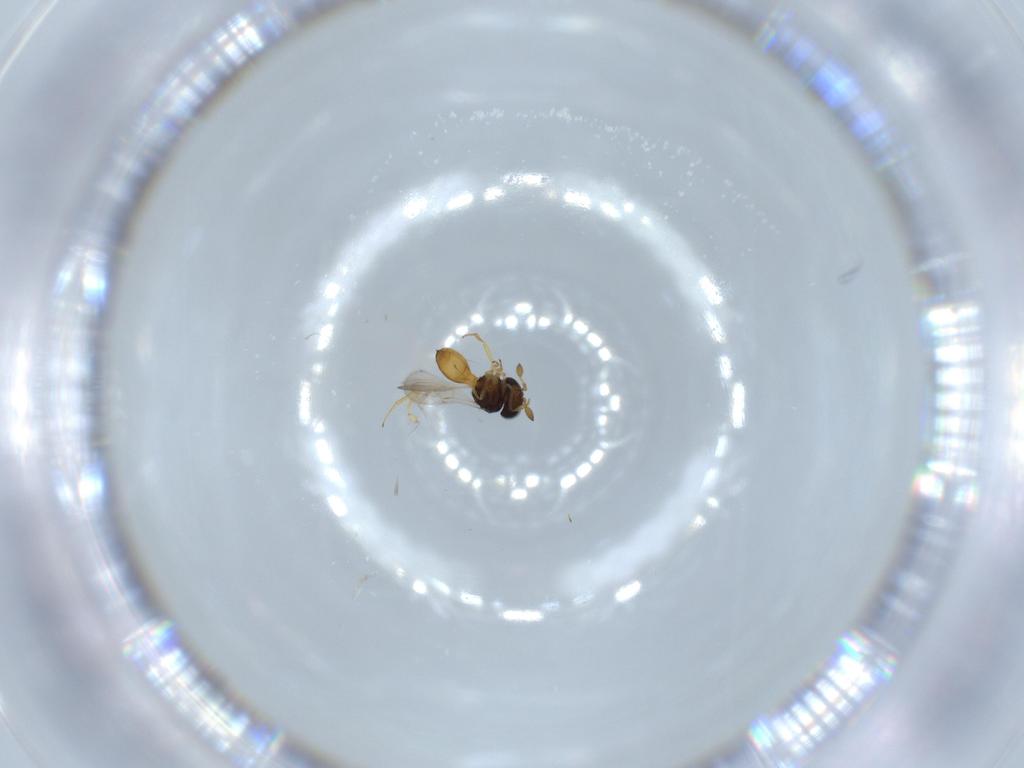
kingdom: Animalia
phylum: Arthropoda
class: Insecta
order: Hymenoptera
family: Scelionidae
